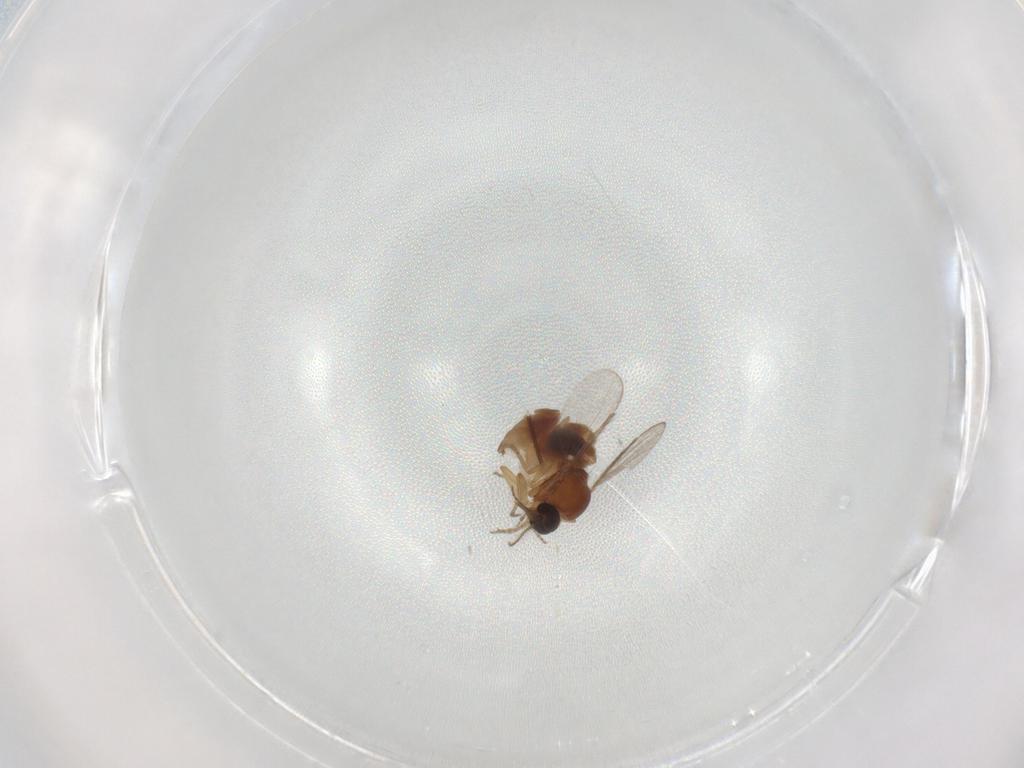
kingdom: Animalia
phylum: Arthropoda
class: Insecta
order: Diptera
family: Ceratopogonidae
